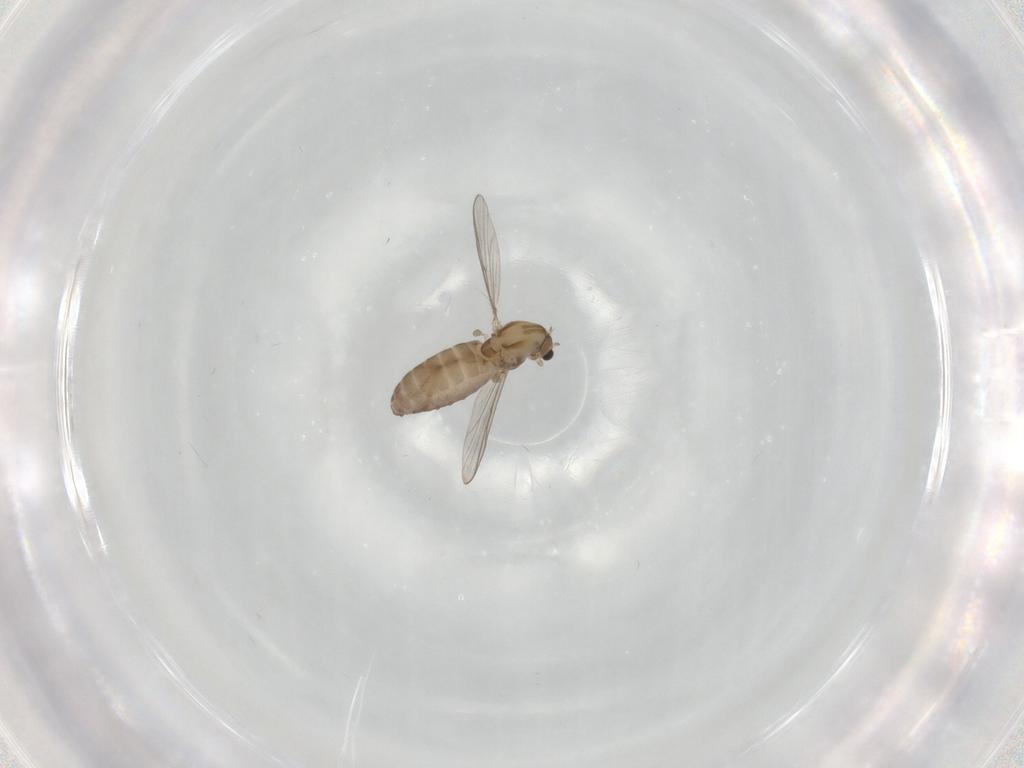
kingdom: Animalia
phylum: Arthropoda
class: Insecta
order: Diptera
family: Chironomidae
